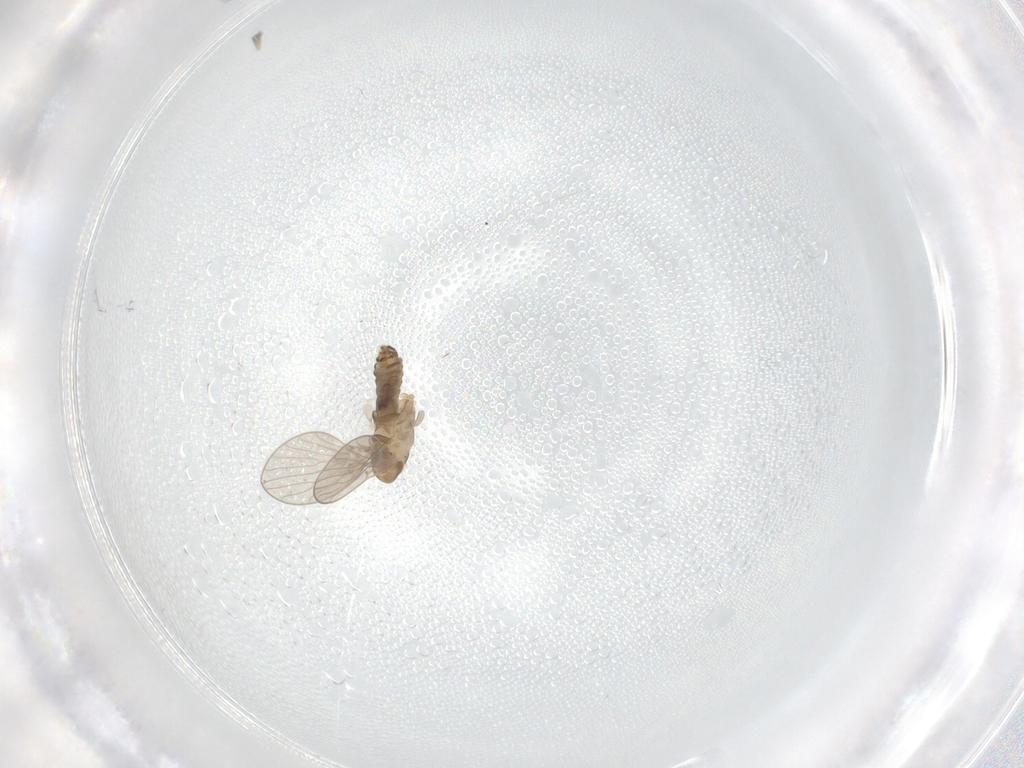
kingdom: Animalia
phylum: Arthropoda
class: Insecta
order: Diptera
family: Psychodidae
